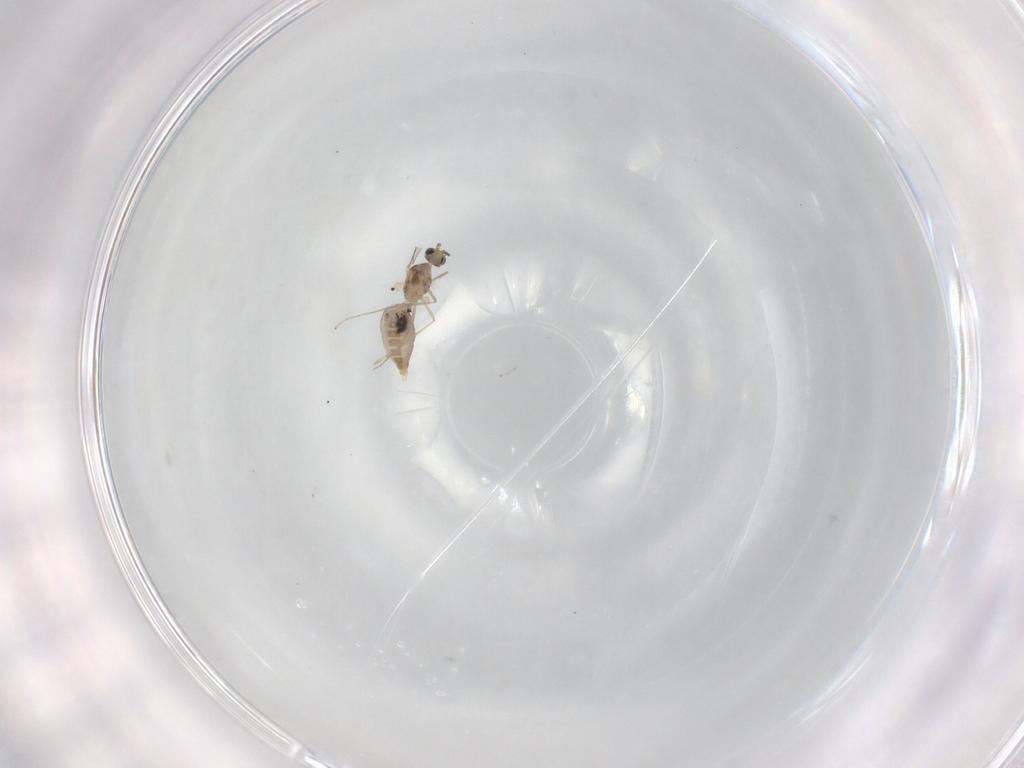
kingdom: Animalia
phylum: Arthropoda
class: Insecta
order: Diptera
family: Cecidomyiidae
